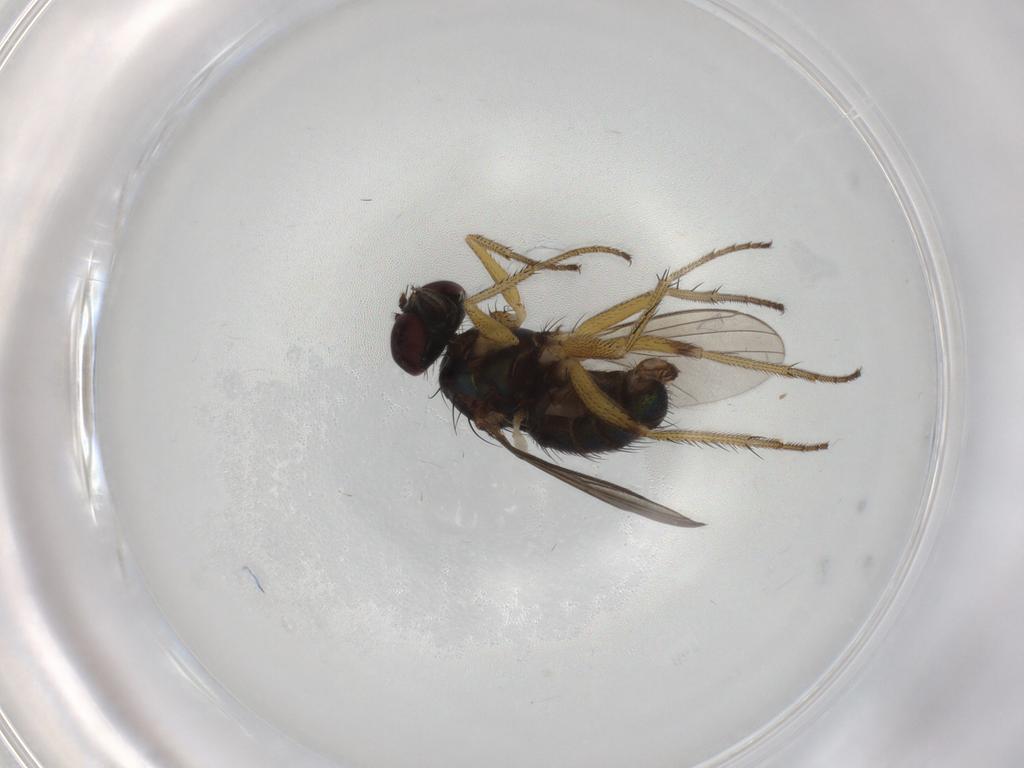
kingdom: Animalia
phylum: Arthropoda
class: Insecta
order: Diptera
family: Dolichopodidae
